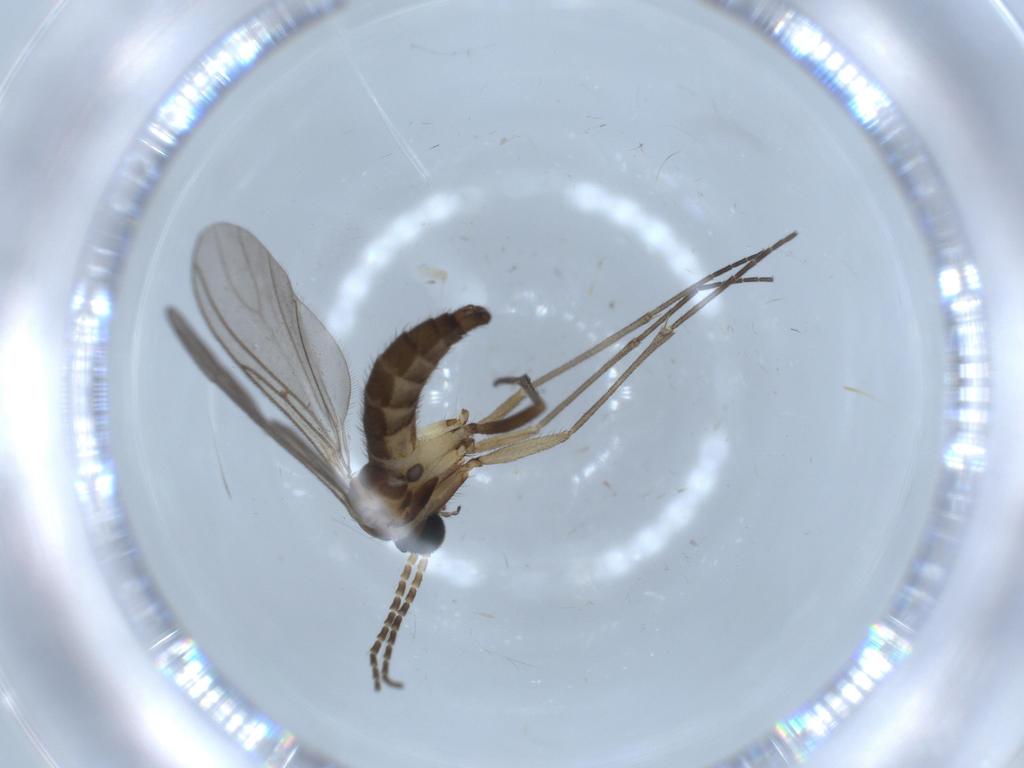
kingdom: Animalia
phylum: Arthropoda
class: Insecta
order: Diptera
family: Sciaridae
